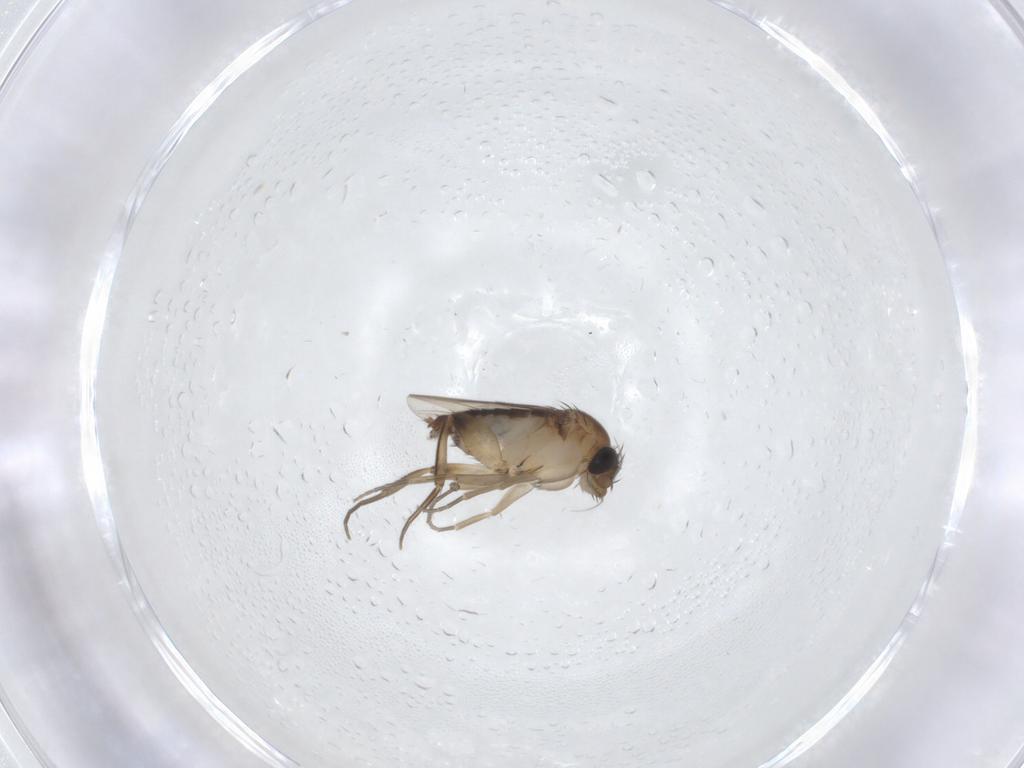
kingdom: Animalia
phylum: Arthropoda
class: Insecta
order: Diptera
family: Phoridae
